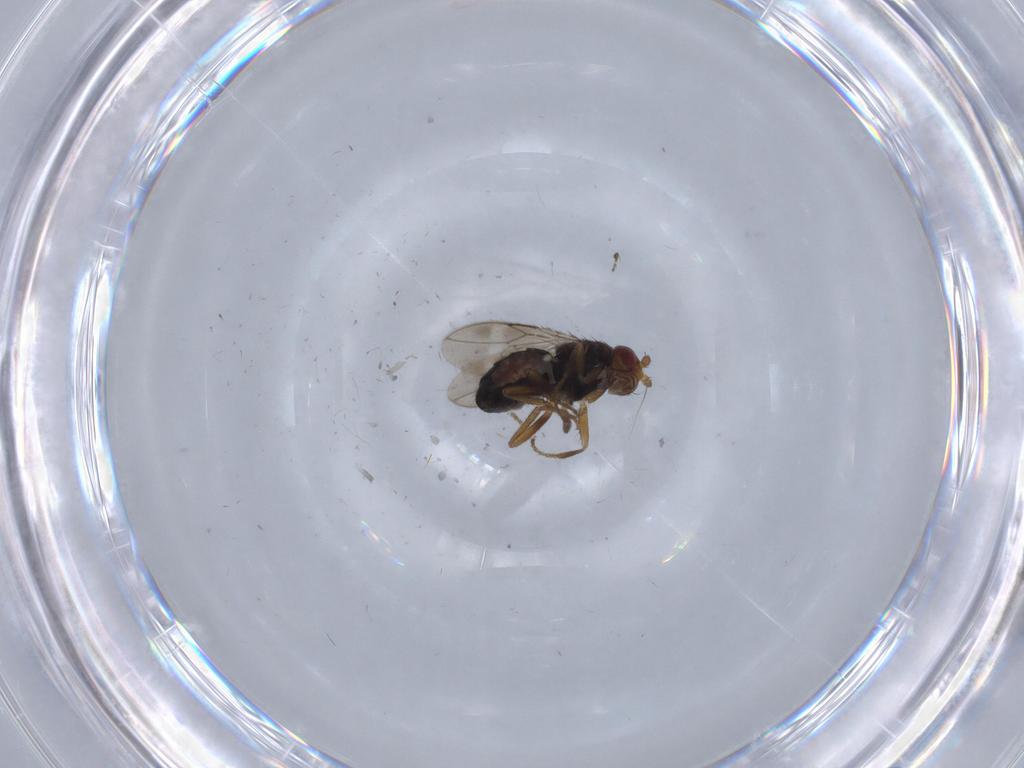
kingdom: Animalia
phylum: Arthropoda
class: Insecta
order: Diptera
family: Sphaeroceridae
